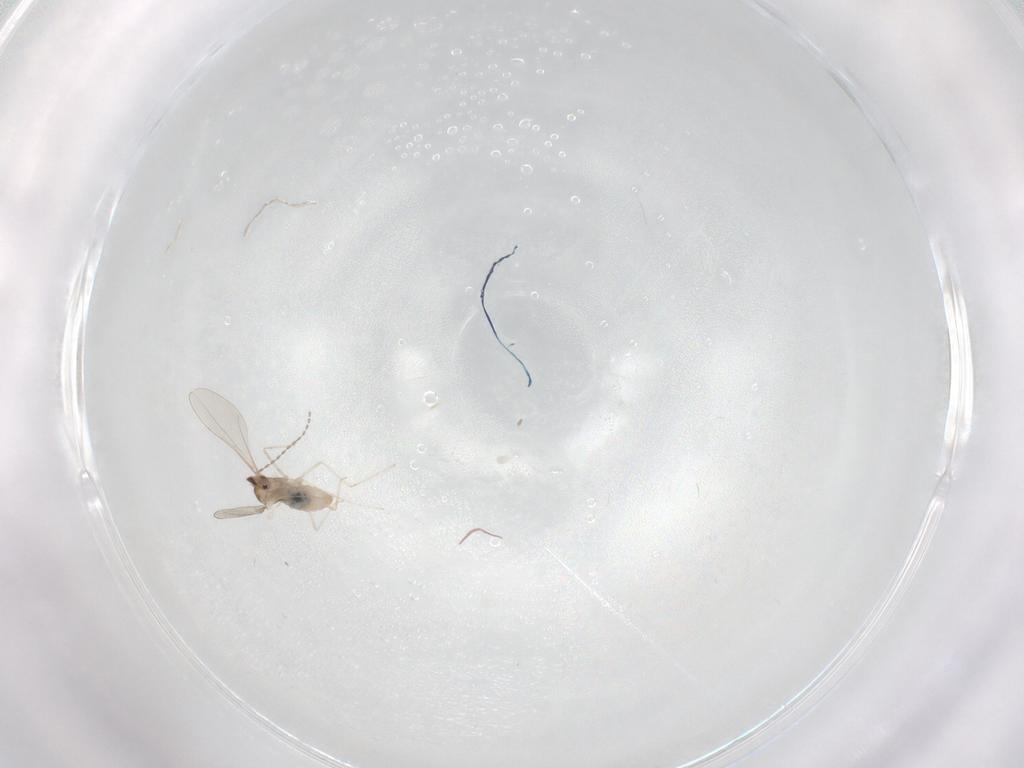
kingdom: Animalia
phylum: Arthropoda
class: Insecta
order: Diptera
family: Cecidomyiidae
